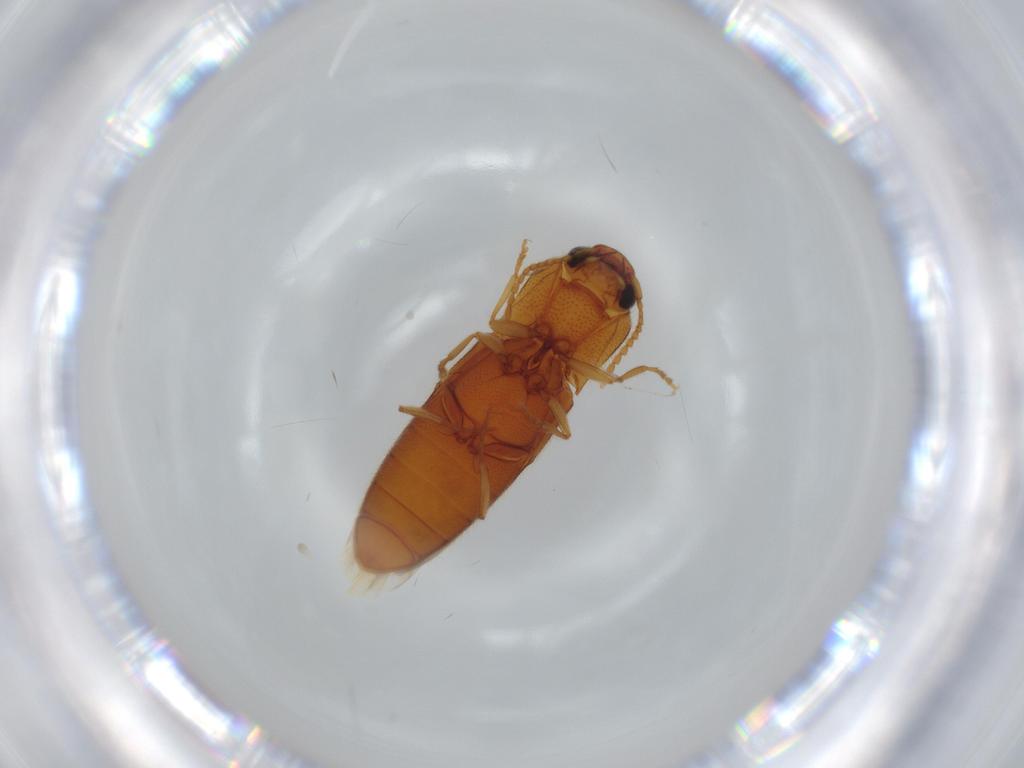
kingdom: Animalia
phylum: Arthropoda
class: Insecta
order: Coleoptera
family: Elateridae
